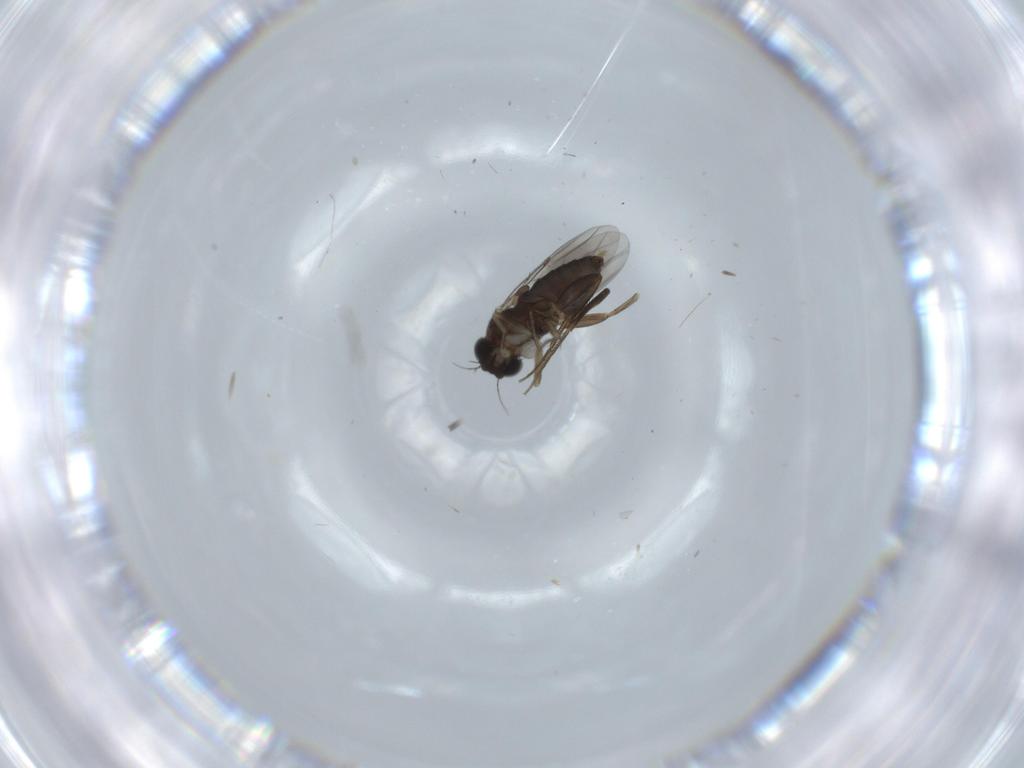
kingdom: Animalia
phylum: Arthropoda
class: Insecta
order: Diptera
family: Phoridae
